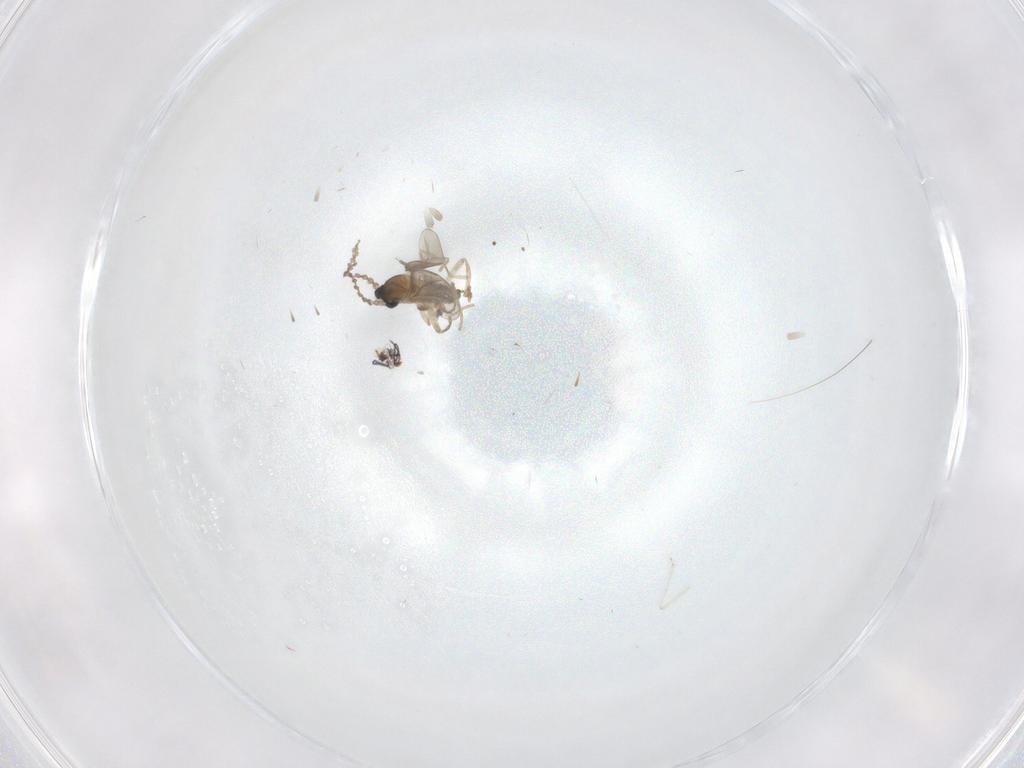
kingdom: Animalia
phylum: Arthropoda
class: Insecta
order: Diptera
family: Psychodidae
